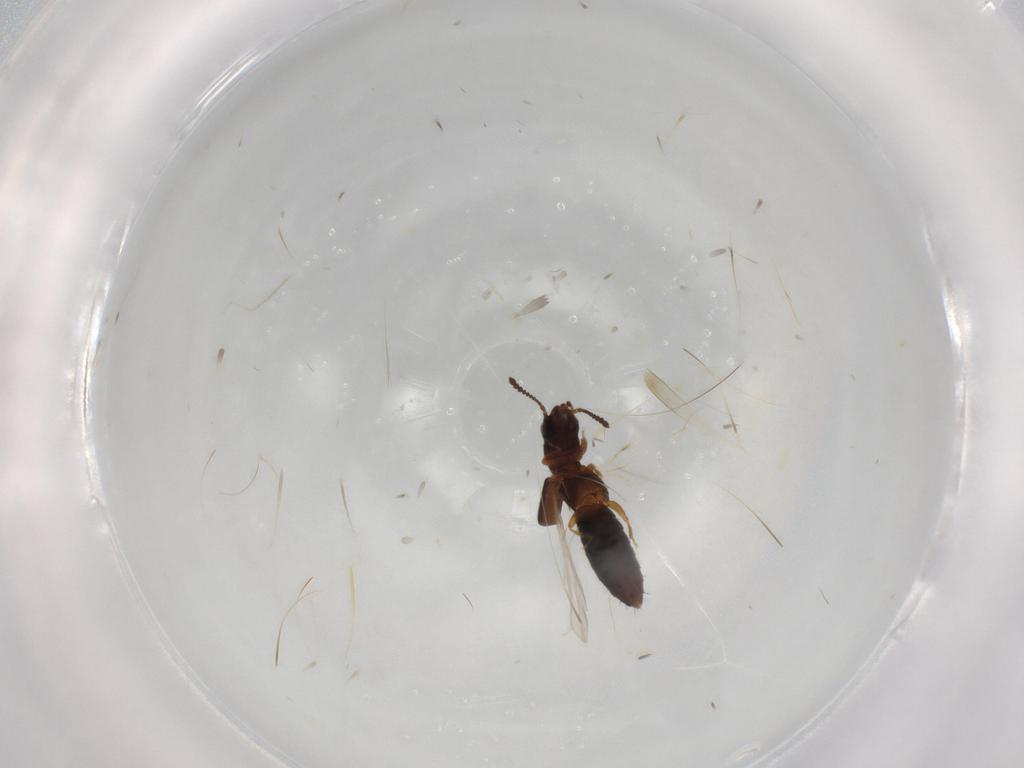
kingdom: Animalia
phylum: Arthropoda
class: Insecta
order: Coleoptera
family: Staphylinidae
